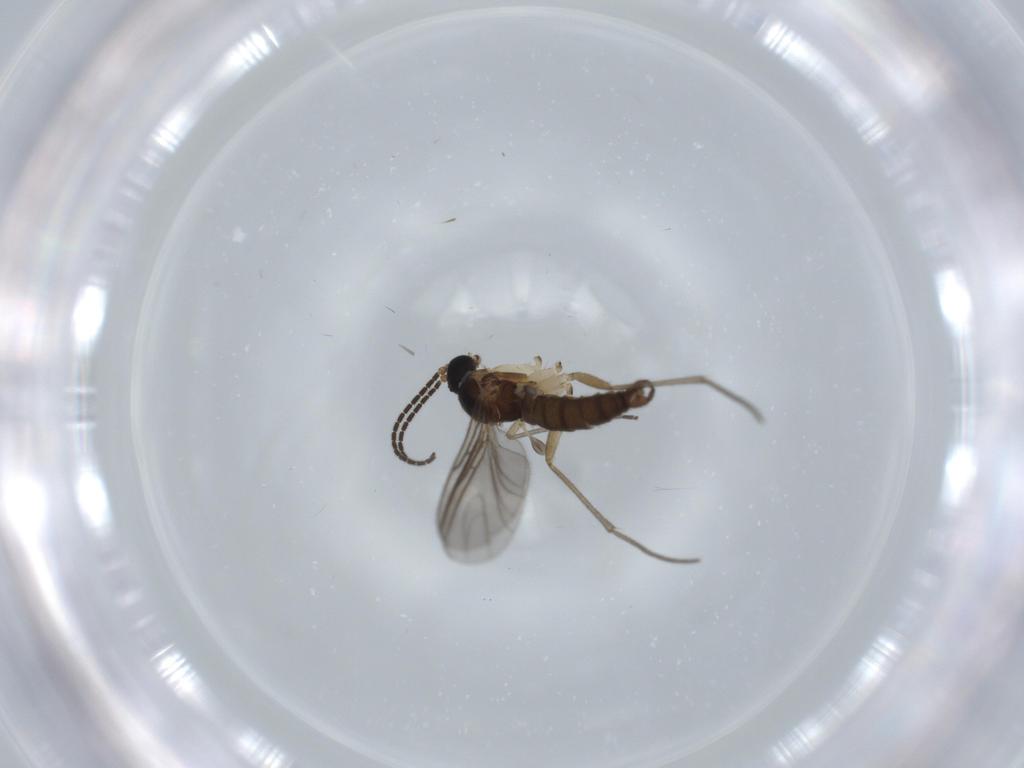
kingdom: Animalia
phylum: Arthropoda
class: Insecta
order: Diptera
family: Sciaridae
